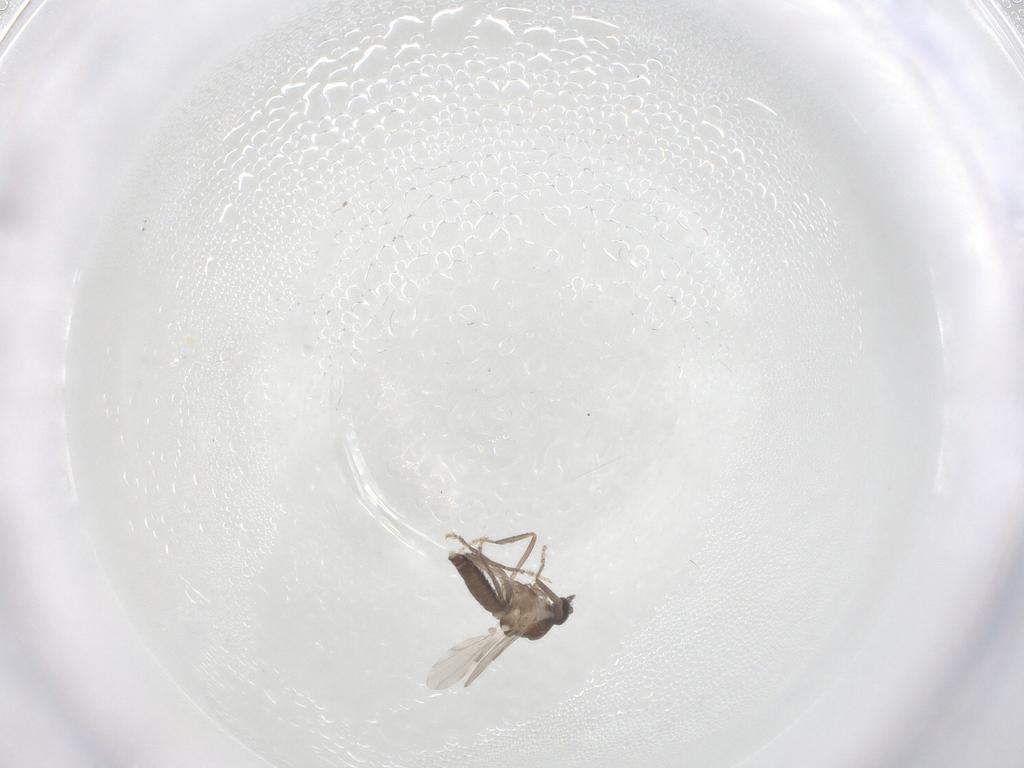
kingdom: Animalia
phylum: Arthropoda
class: Insecta
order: Diptera
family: Ceratopogonidae
